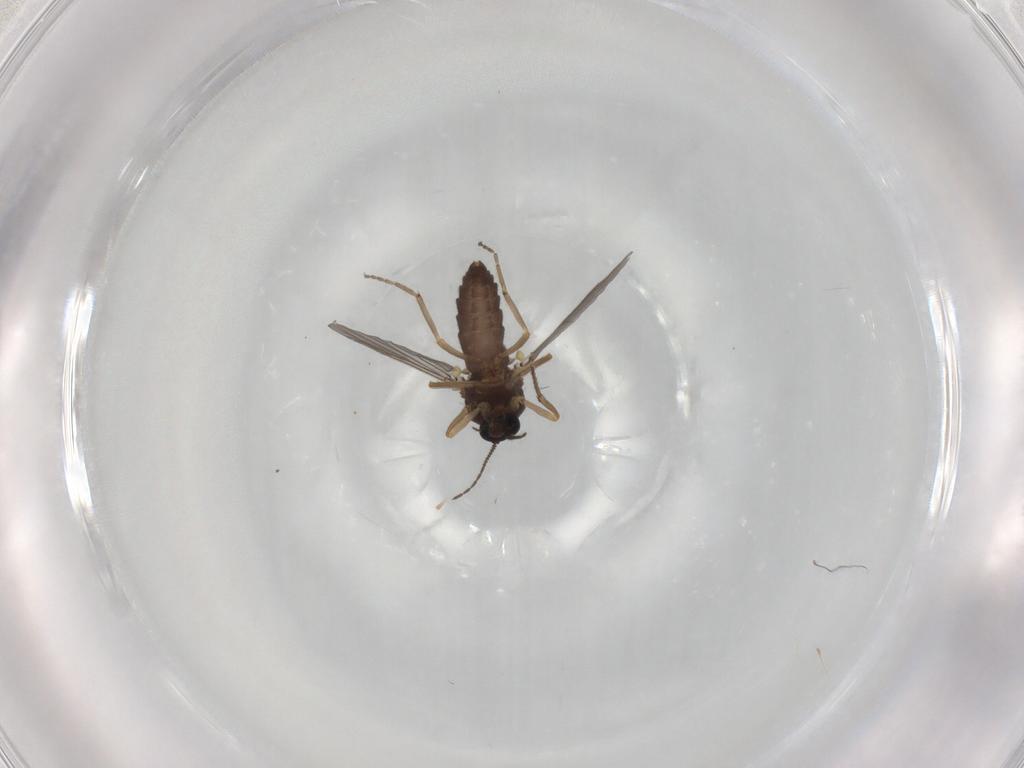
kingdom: Animalia
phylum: Arthropoda
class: Insecta
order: Diptera
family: Ceratopogonidae
